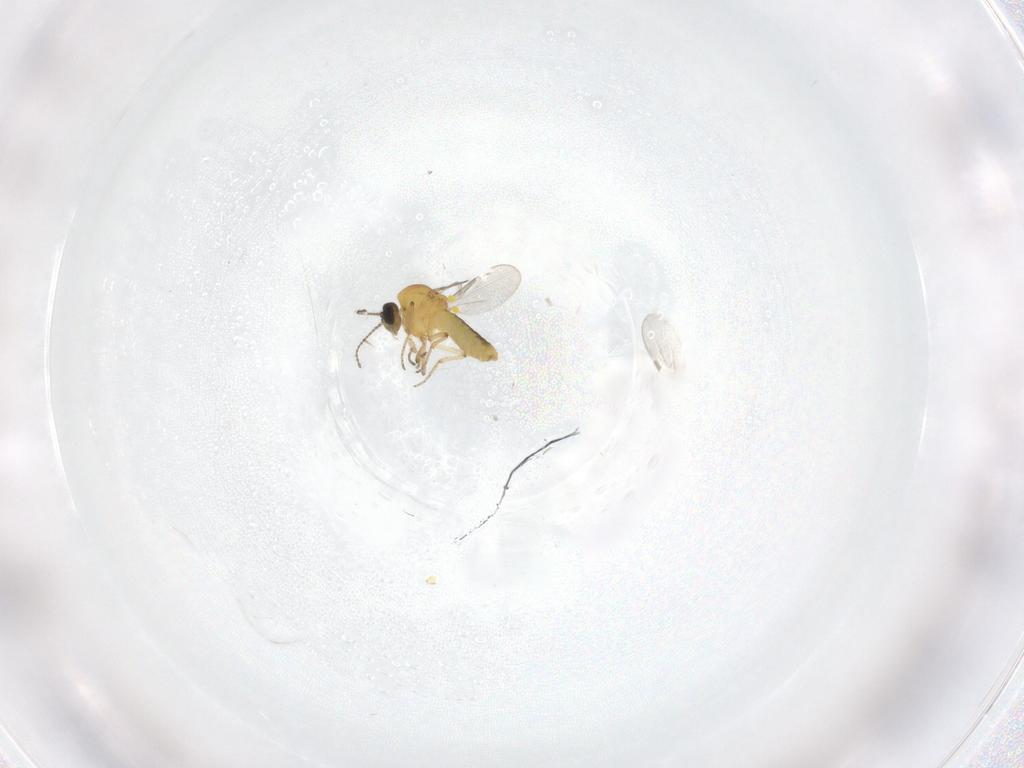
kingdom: Animalia
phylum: Arthropoda
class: Insecta
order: Diptera
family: Ceratopogonidae
